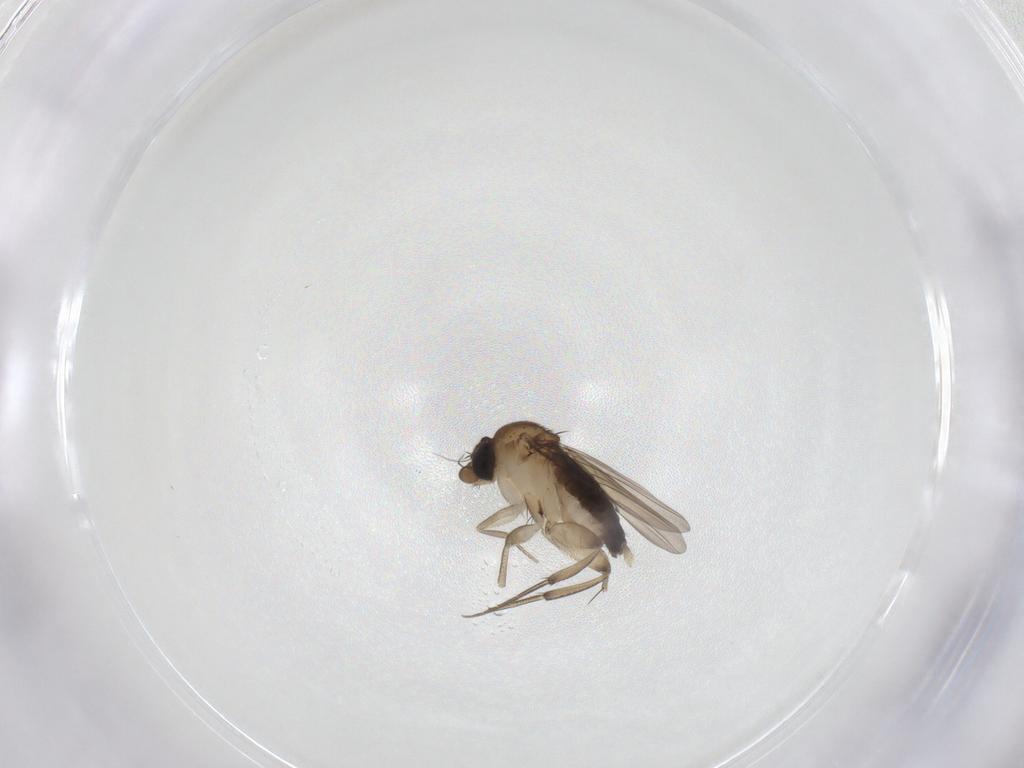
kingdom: Animalia
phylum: Arthropoda
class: Insecta
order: Diptera
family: Phoridae
